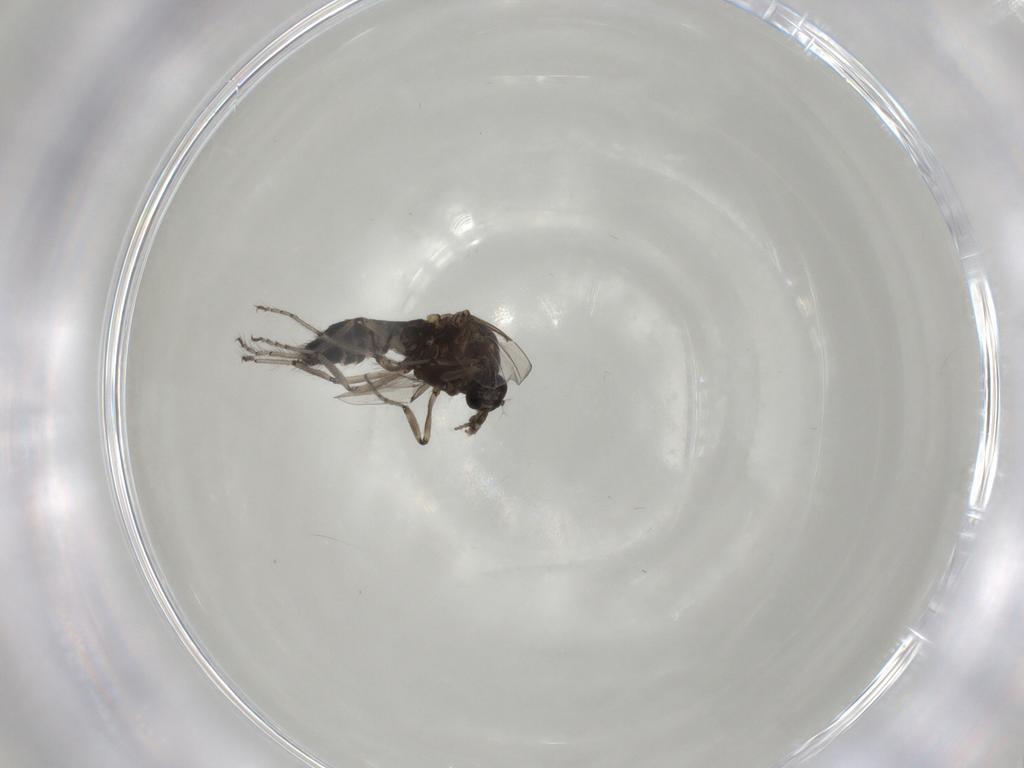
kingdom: Animalia
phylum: Arthropoda
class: Insecta
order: Diptera
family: Ceratopogonidae
